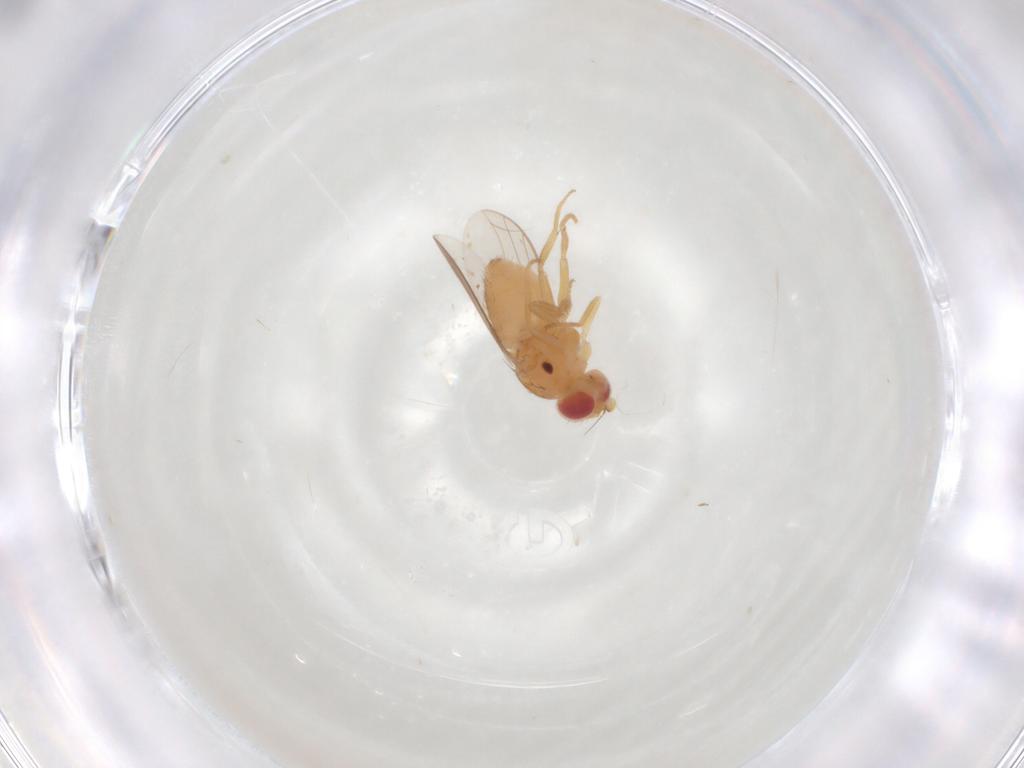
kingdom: Animalia
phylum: Arthropoda
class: Insecta
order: Diptera
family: Chloropidae
